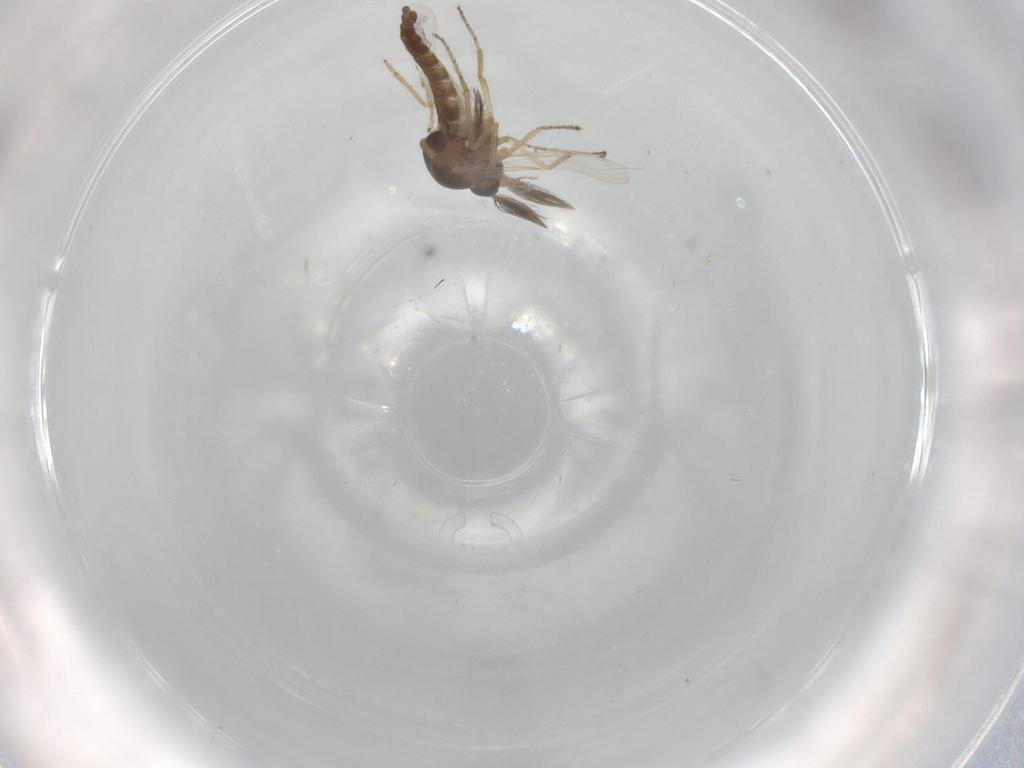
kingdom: Animalia
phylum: Arthropoda
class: Insecta
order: Diptera
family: Ceratopogonidae
